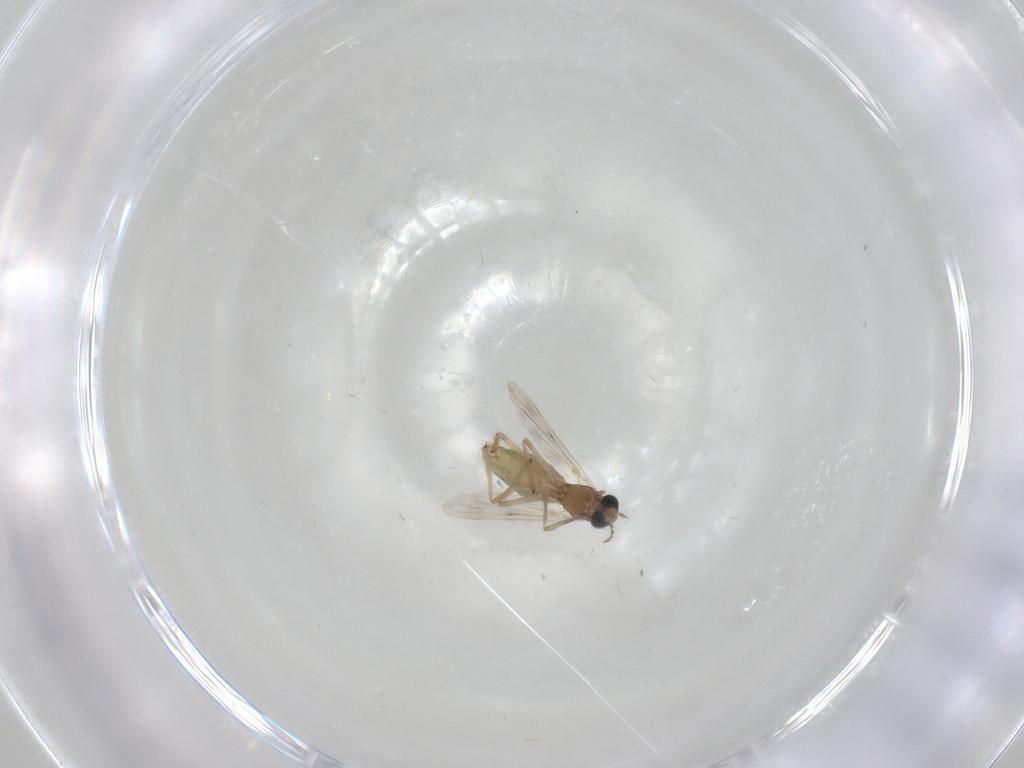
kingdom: Animalia
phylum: Arthropoda
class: Insecta
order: Diptera
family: Chironomidae
